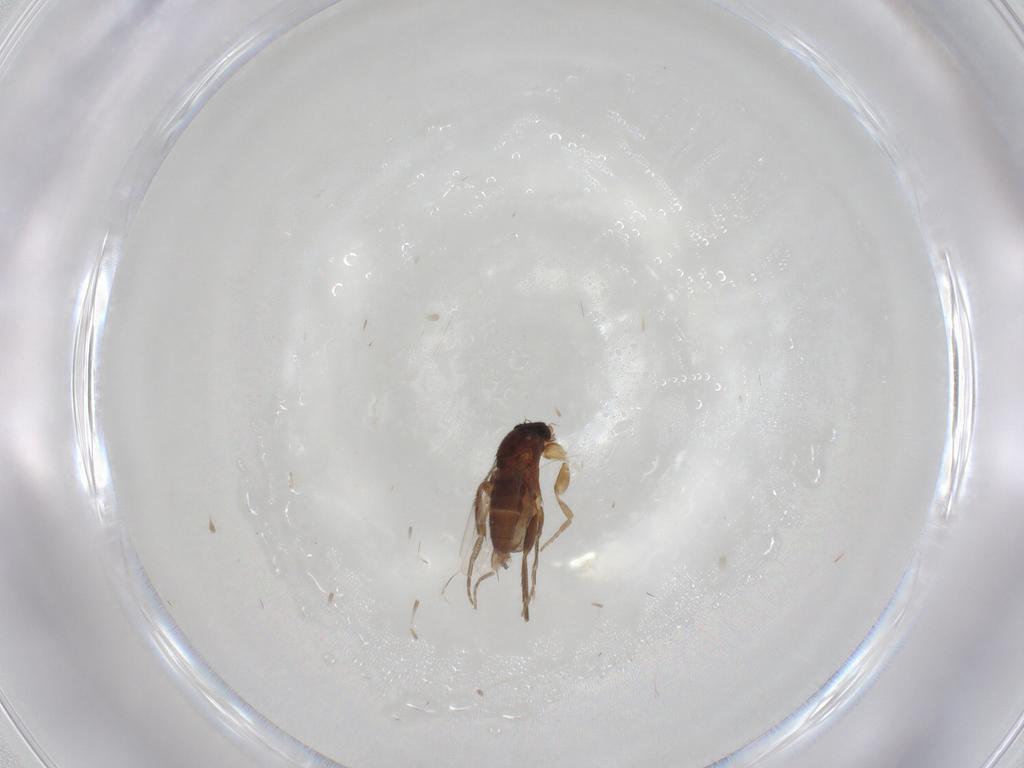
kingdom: Animalia
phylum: Arthropoda
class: Insecta
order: Diptera
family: Phoridae
